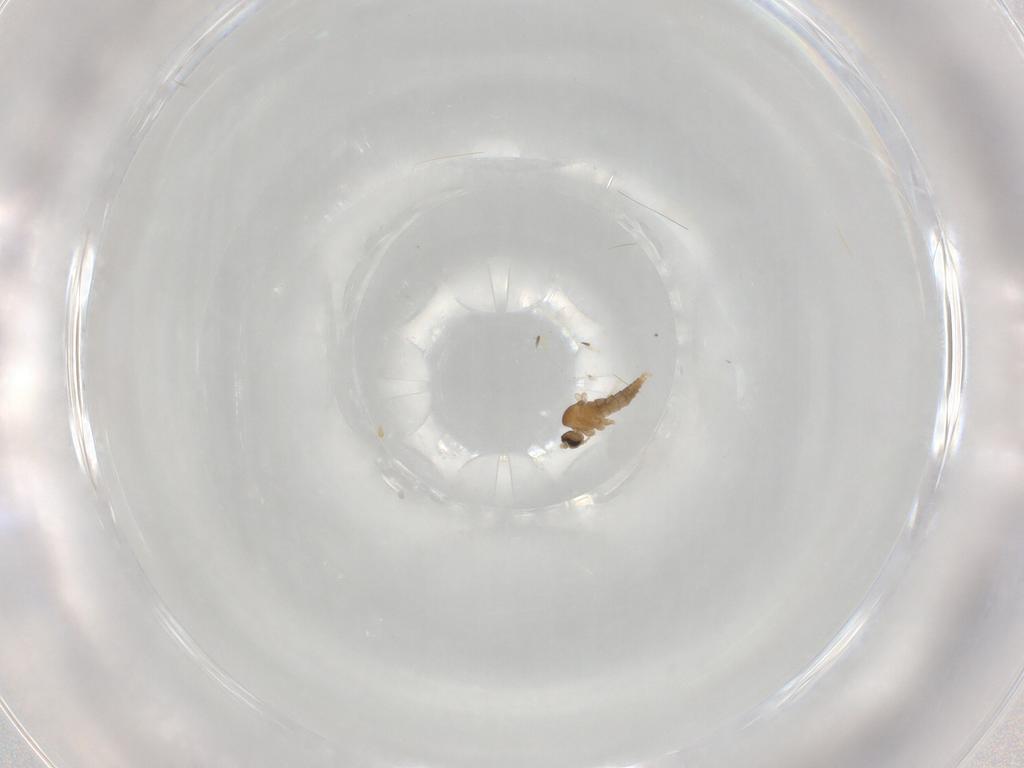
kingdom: Animalia
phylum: Arthropoda
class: Insecta
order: Diptera
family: Cecidomyiidae
